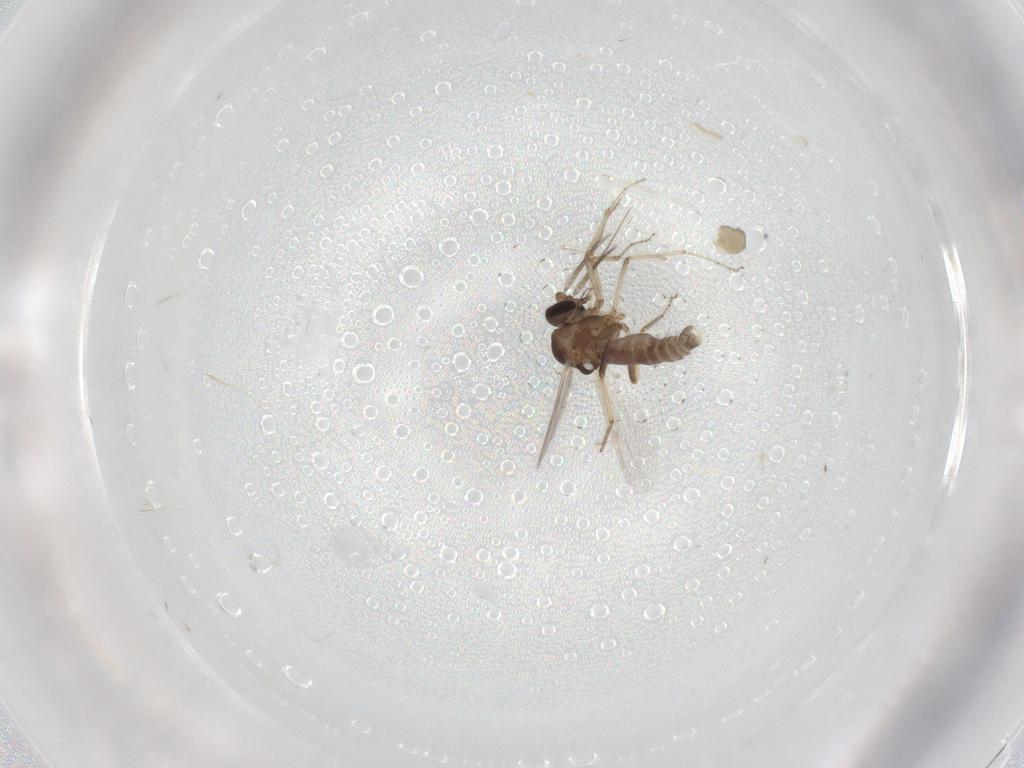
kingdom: Animalia
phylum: Arthropoda
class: Insecta
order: Diptera
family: Ceratopogonidae
